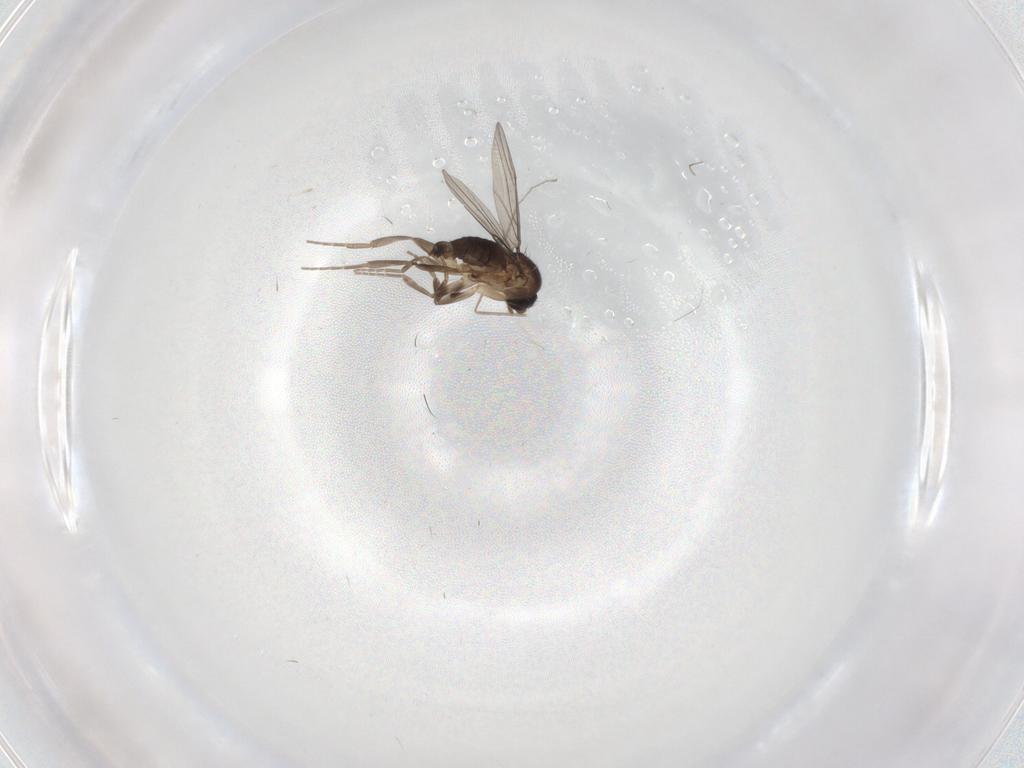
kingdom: Animalia
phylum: Arthropoda
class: Insecta
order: Diptera
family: Phoridae
